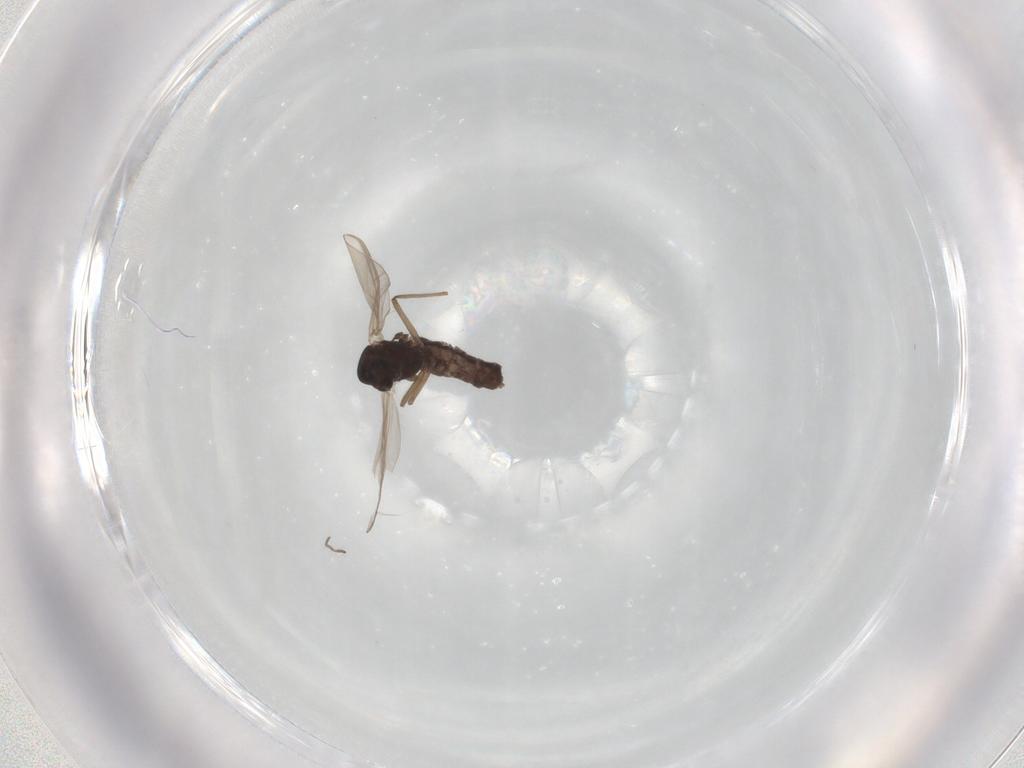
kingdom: Animalia
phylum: Arthropoda
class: Insecta
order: Diptera
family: Chironomidae
